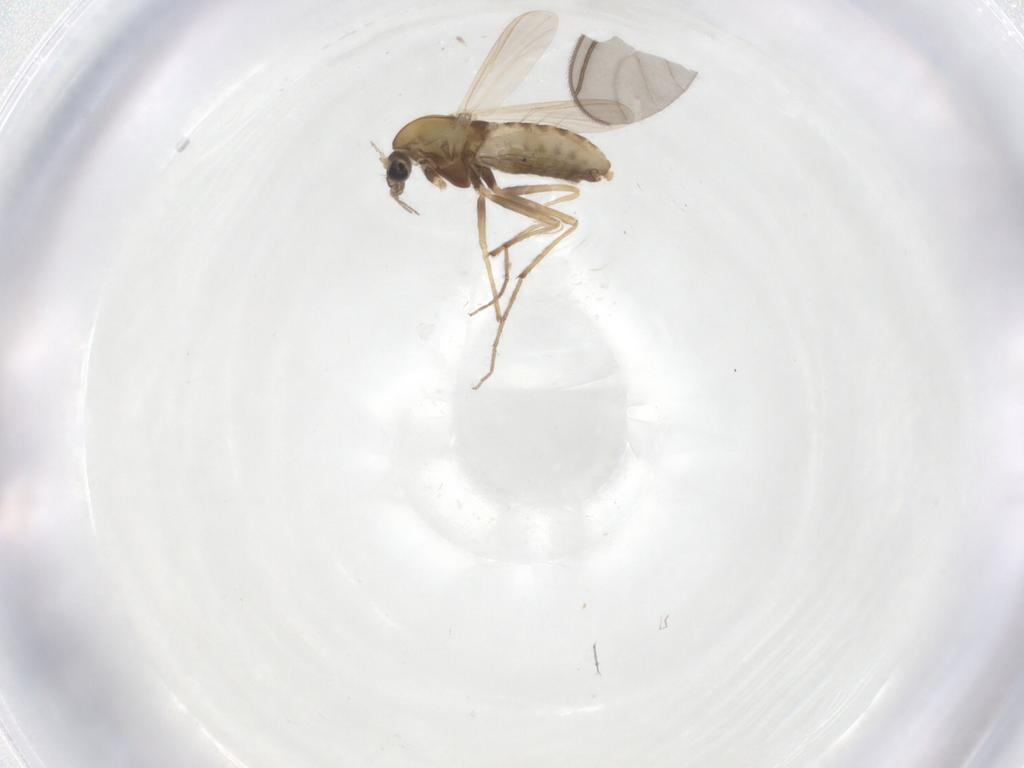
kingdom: Animalia
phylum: Arthropoda
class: Insecta
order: Diptera
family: Chironomidae
